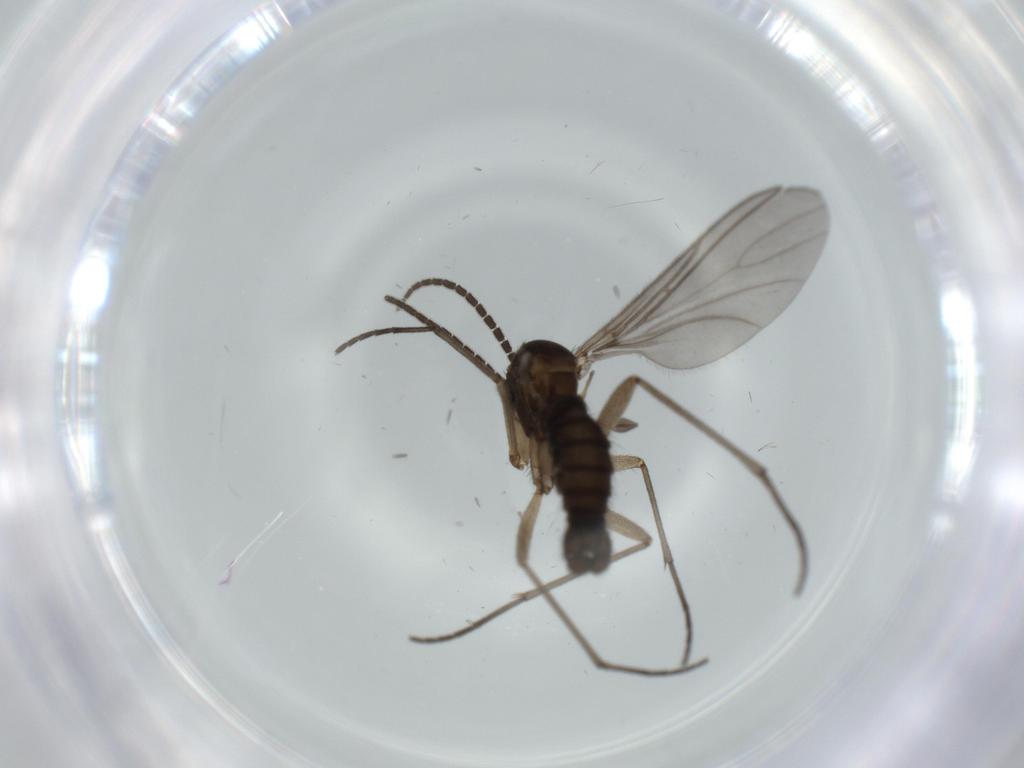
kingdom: Animalia
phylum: Arthropoda
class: Insecta
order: Diptera
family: Sciaridae
